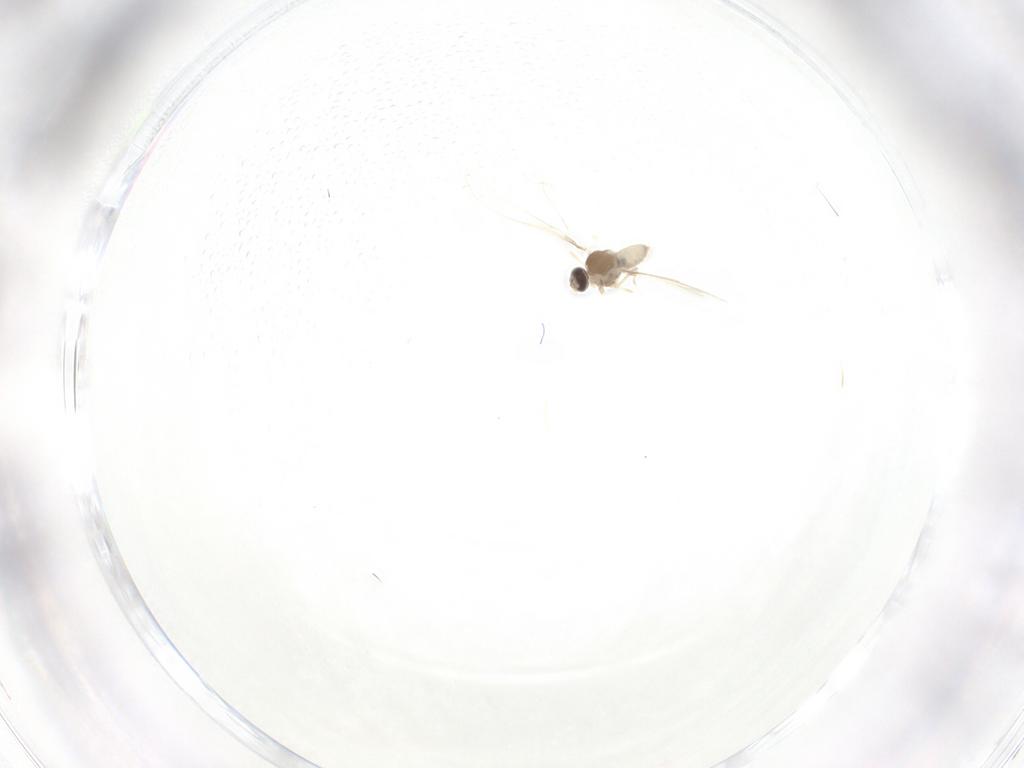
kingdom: Animalia
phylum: Arthropoda
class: Insecta
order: Diptera
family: Cecidomyiidae
